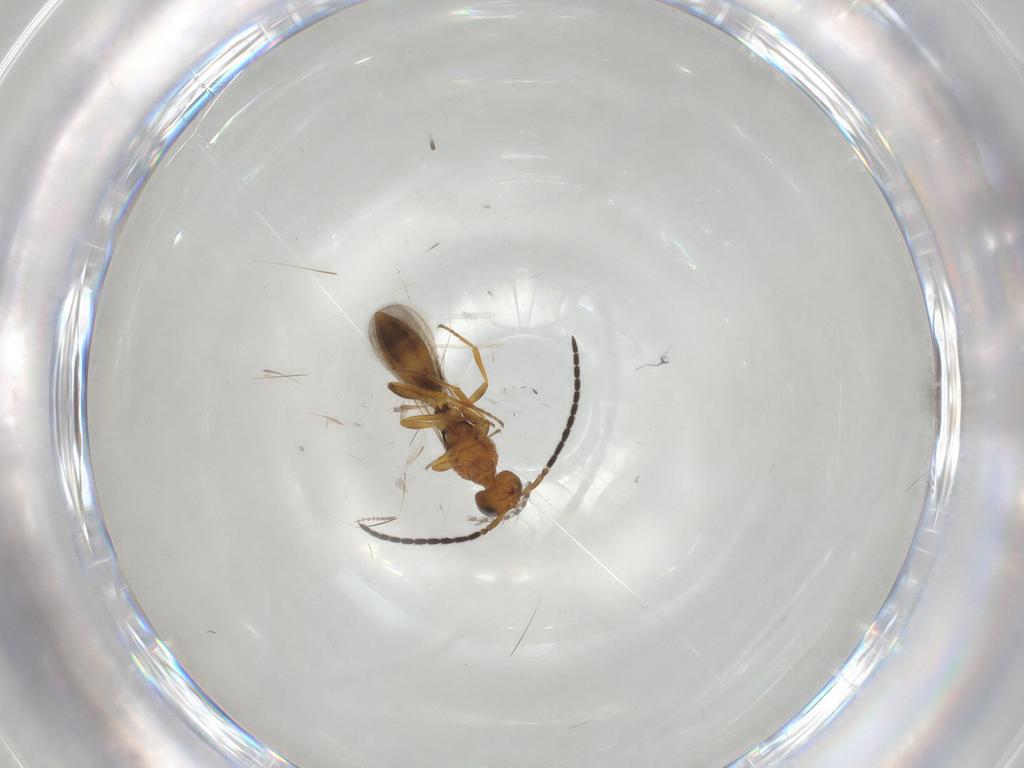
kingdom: Animalia
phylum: Arthropoda
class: Insecta
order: Hymenoptera
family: Scelionidae
